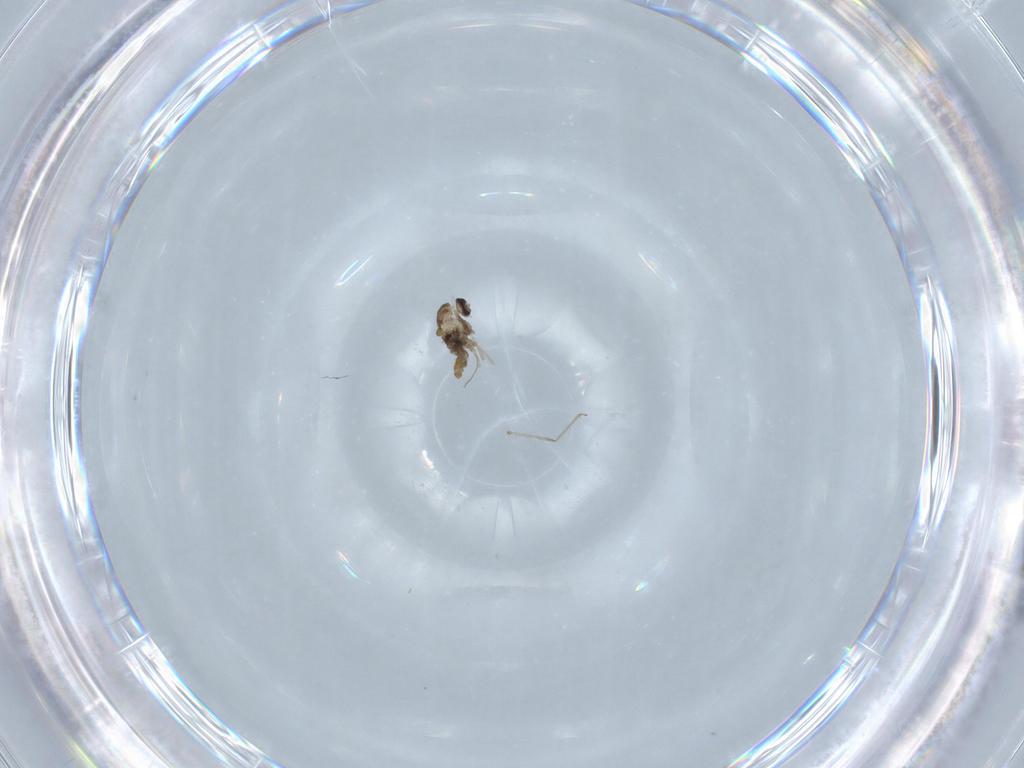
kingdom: Animalia
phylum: Arthropoda
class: Insecta
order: Diptera
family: Cecidomyiidae
